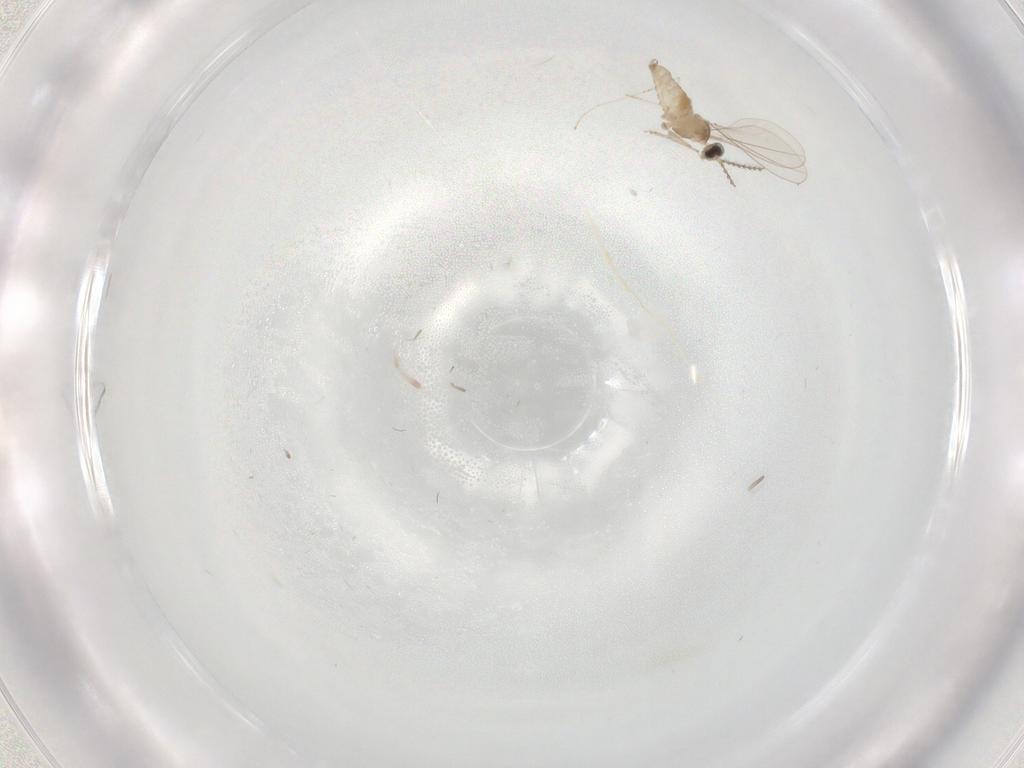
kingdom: Animalia
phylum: Arthropoda
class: Insecta
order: Diptera
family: Cecidomyiidae
